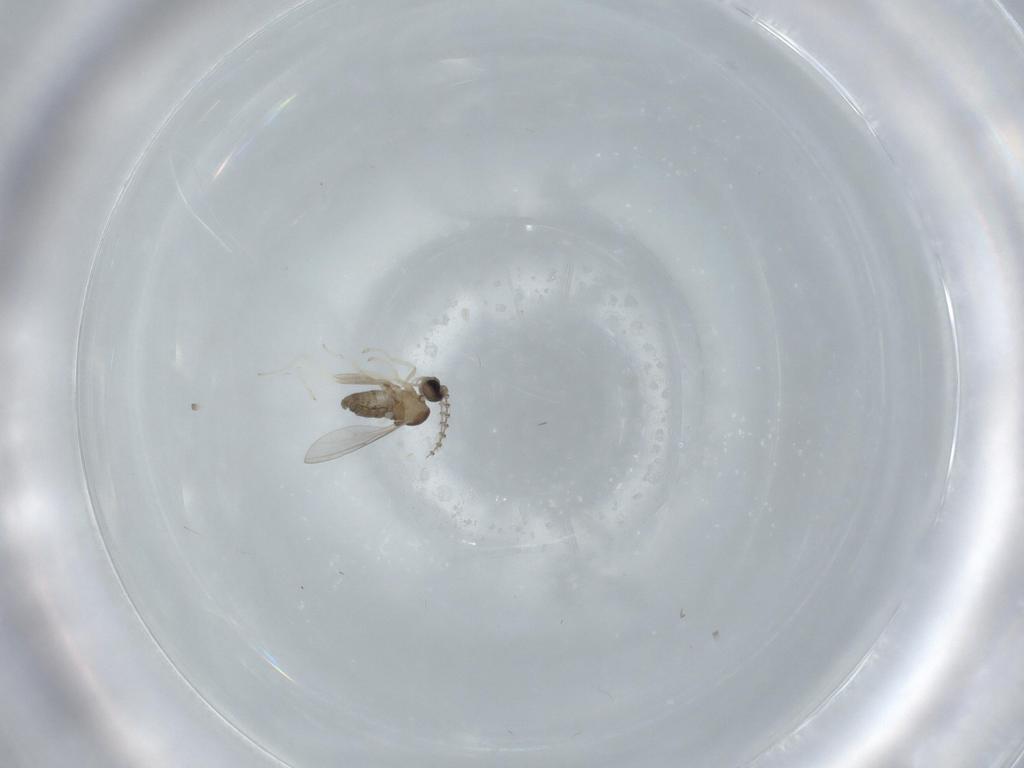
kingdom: Animalia
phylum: Arthropoda
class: Insecta
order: Diptera
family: Cecidomyiidae
